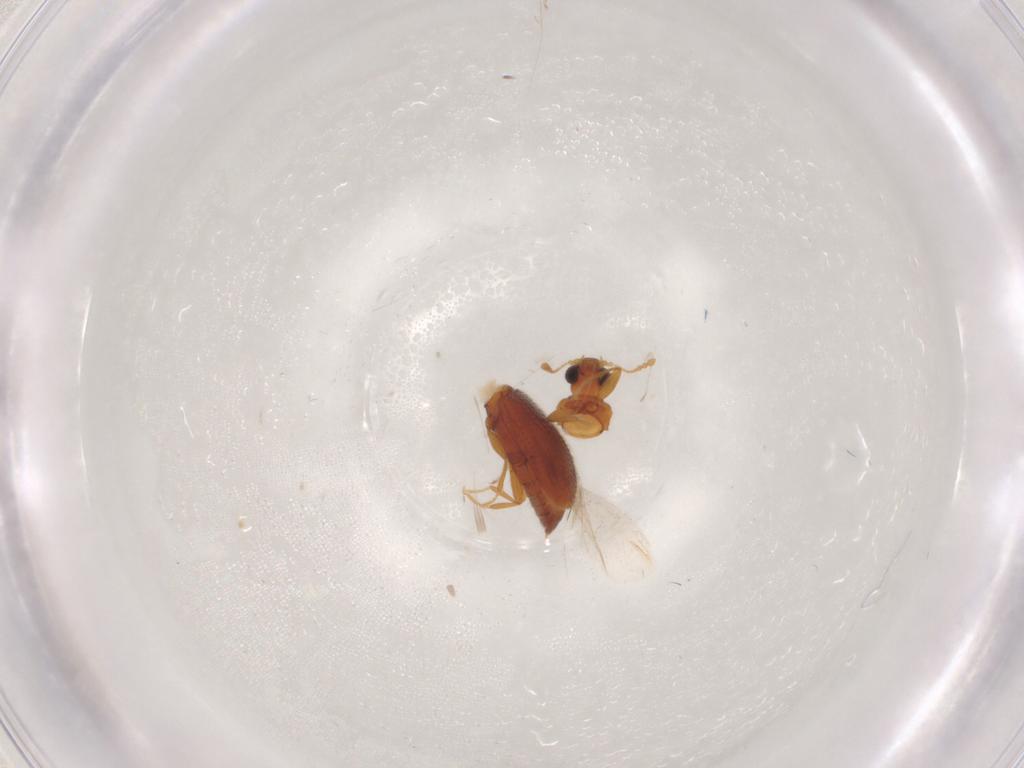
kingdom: Animalia
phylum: Arthropoda
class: Insecta
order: Coleoptera
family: Latridiidae
